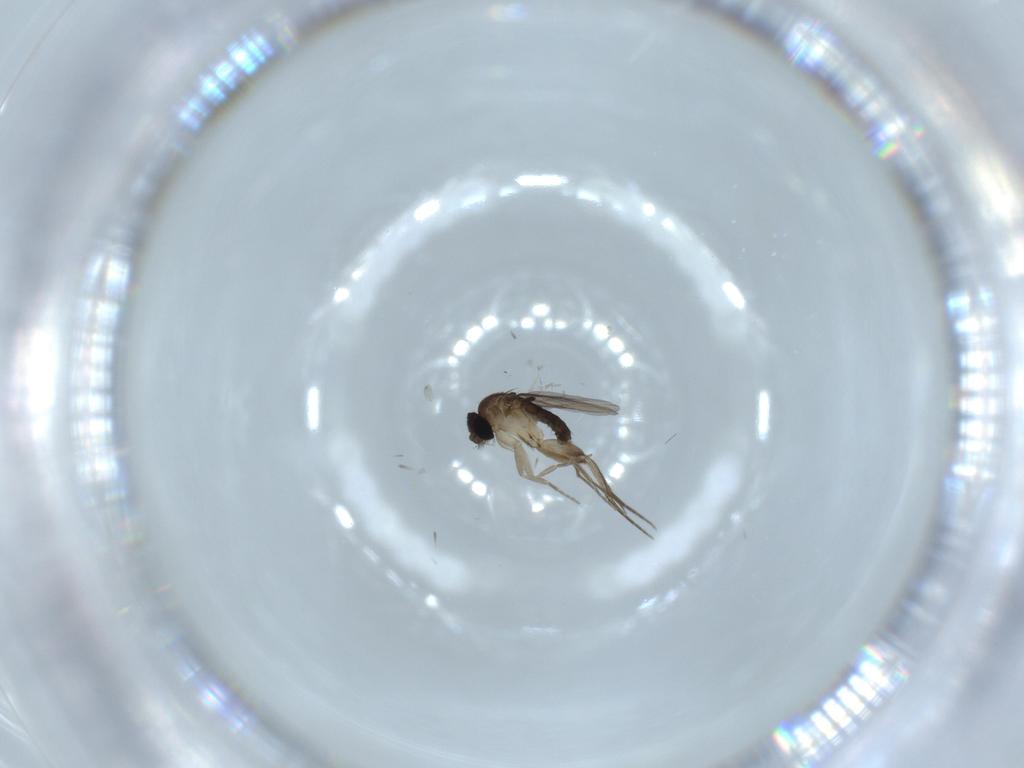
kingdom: Animalia
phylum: Arthropoda
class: Insecta
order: Diptera
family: Phoridae
